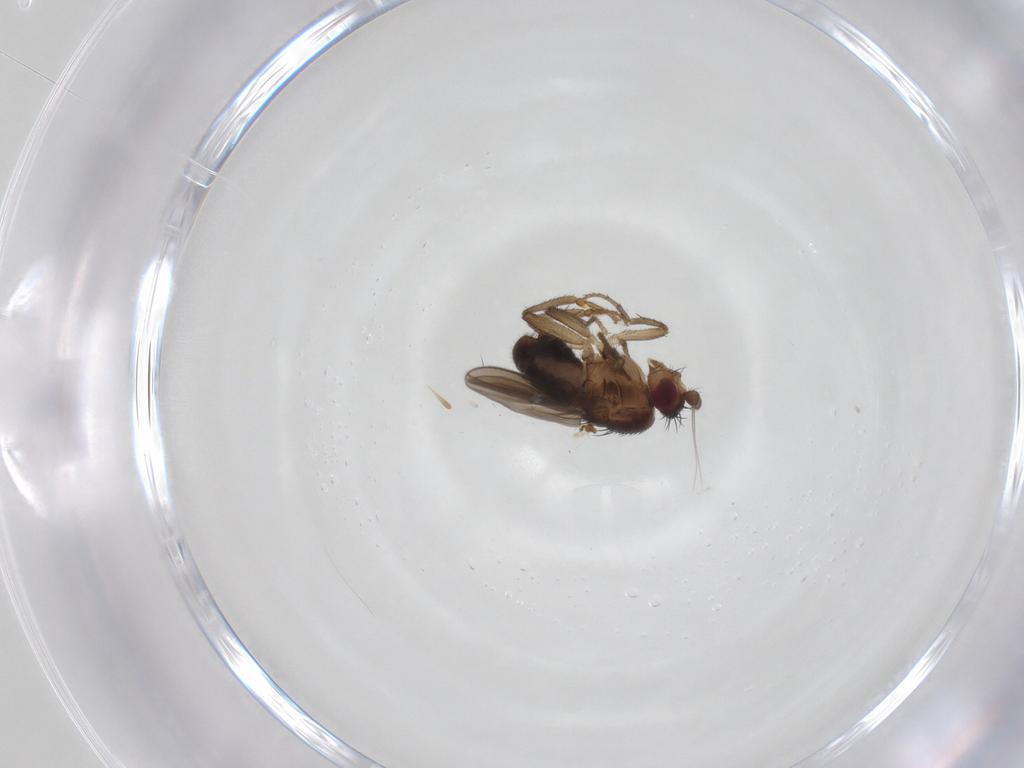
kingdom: Animalia
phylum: Arthropoda
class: Insecta
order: Diptera
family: Sphaeroceridae
